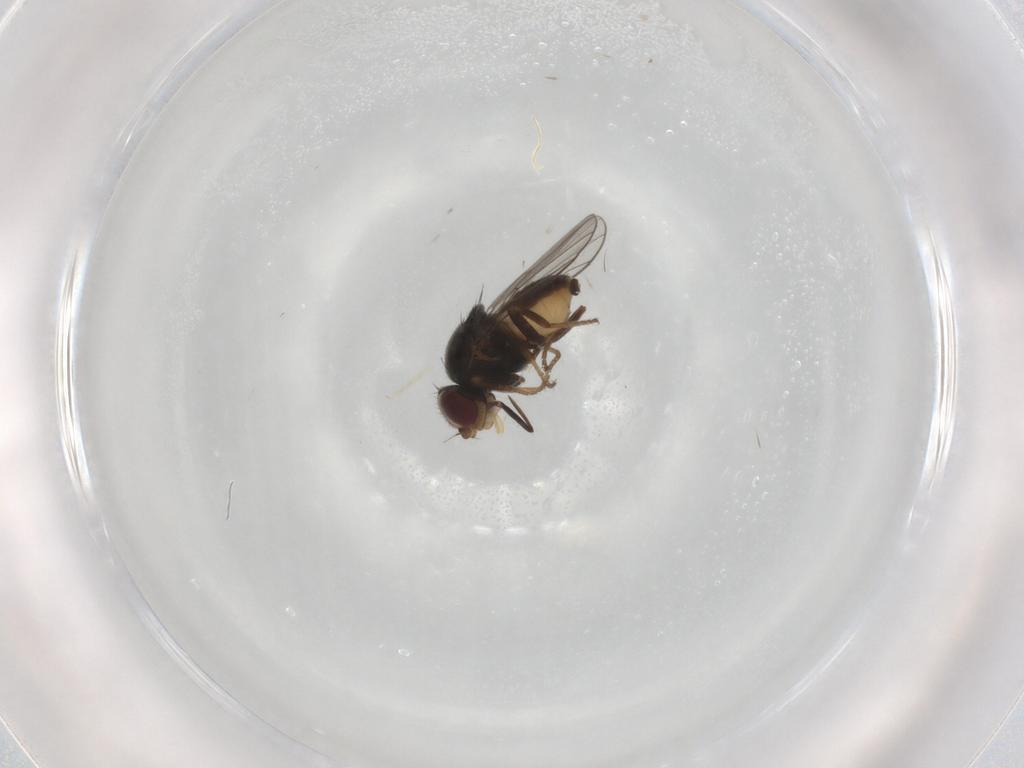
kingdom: Animalia
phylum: Arthropoda
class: Insecta
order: Diptera
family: Chloropidae
